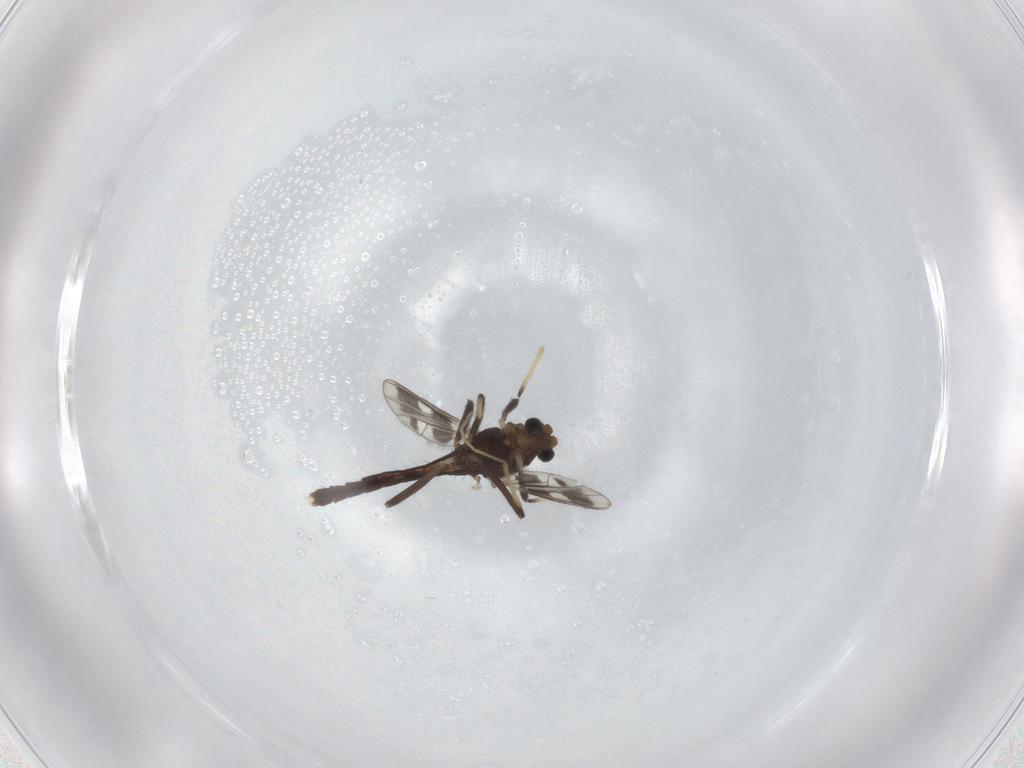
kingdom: Animalia
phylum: Arthropoda
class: Insecta
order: Diptera
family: Chironomidae
